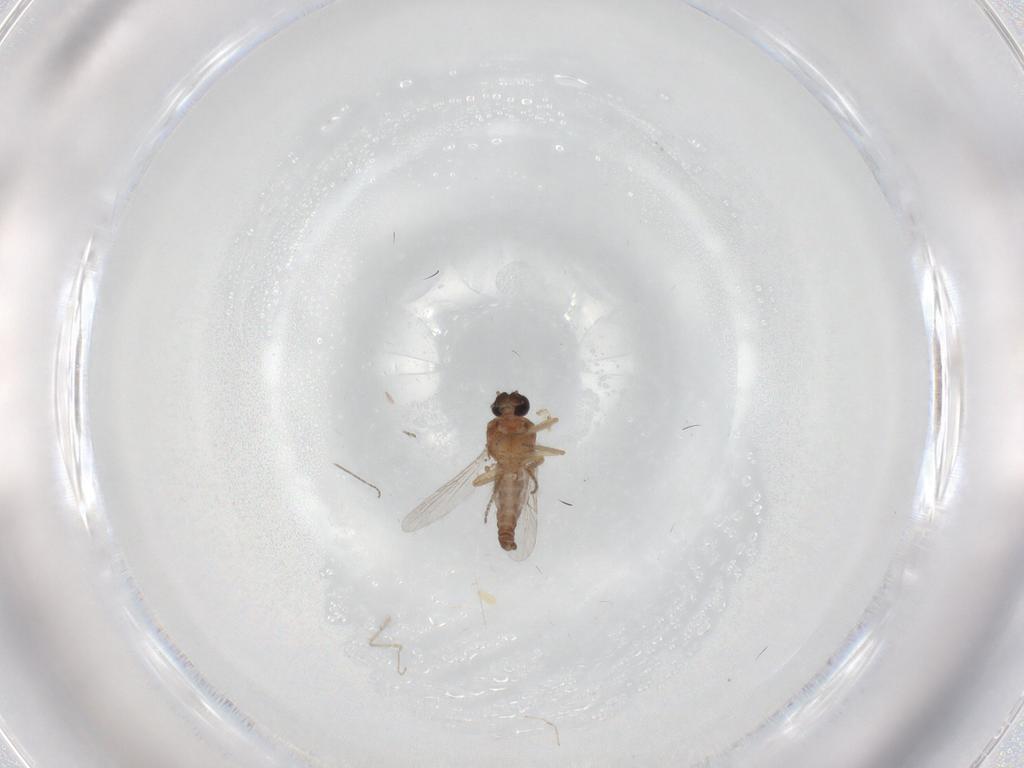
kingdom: Animalia
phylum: Arthropoda
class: Insecta
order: Diptera
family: Ceratopogonidae
